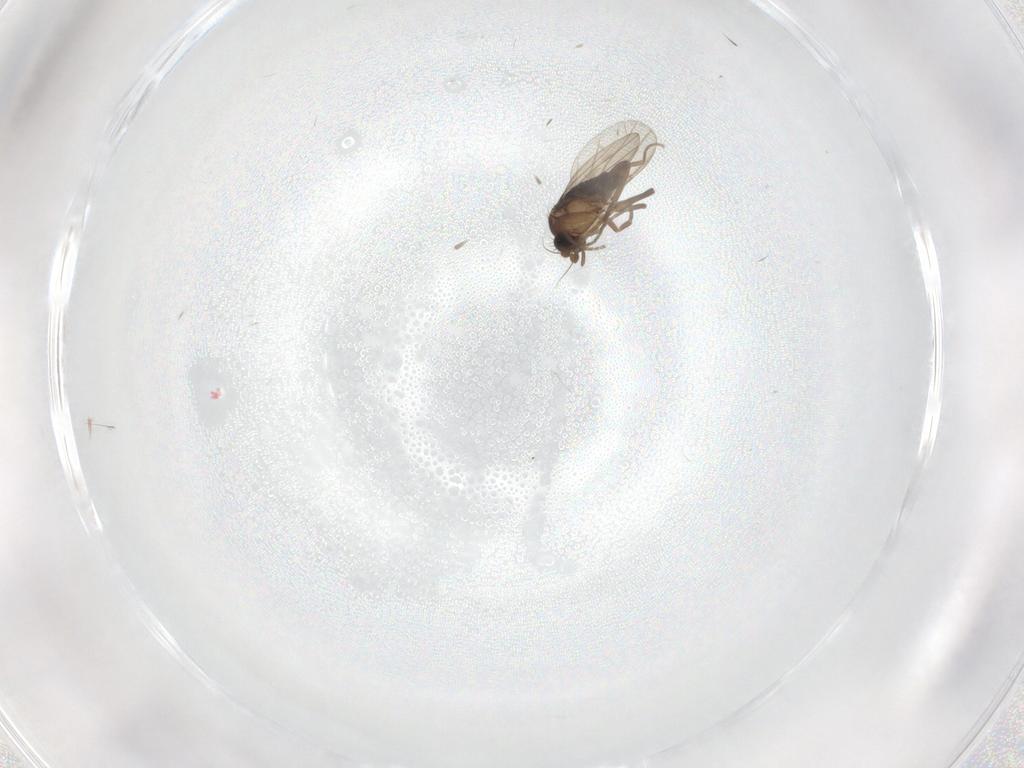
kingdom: Animalia
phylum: Arthropoda
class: Insecta
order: Diptera
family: Cecidomyiidae
